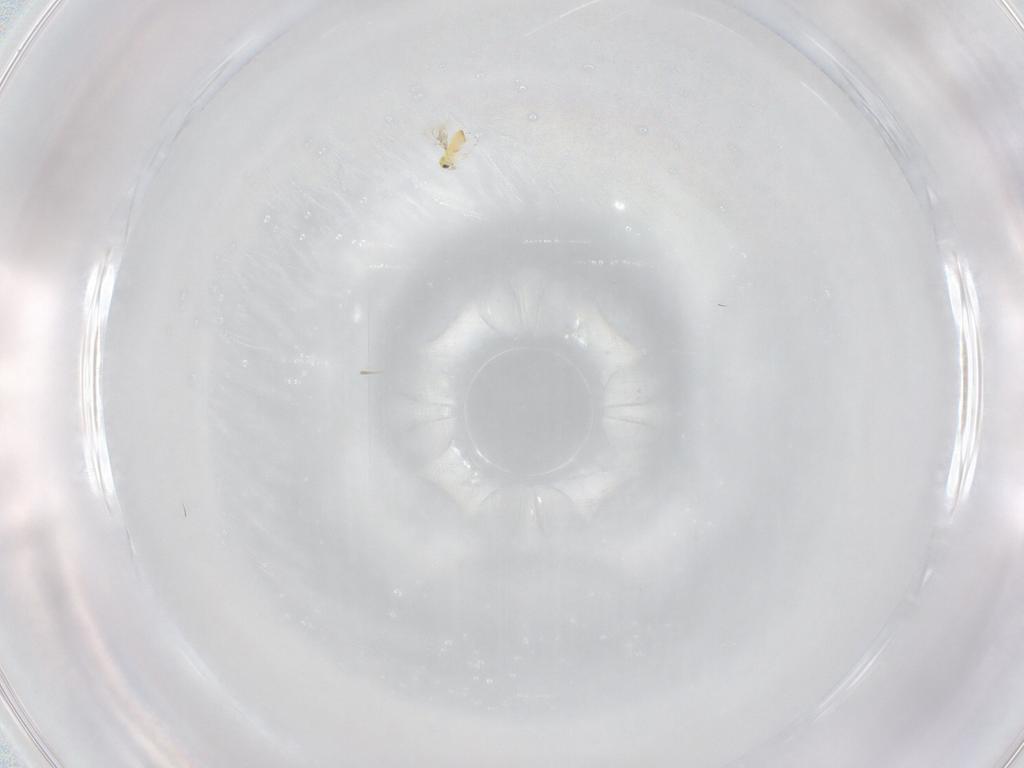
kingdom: Animalia
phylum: Arthropoda
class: Insecta
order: Hymenoptera
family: Trichogrammatidae
